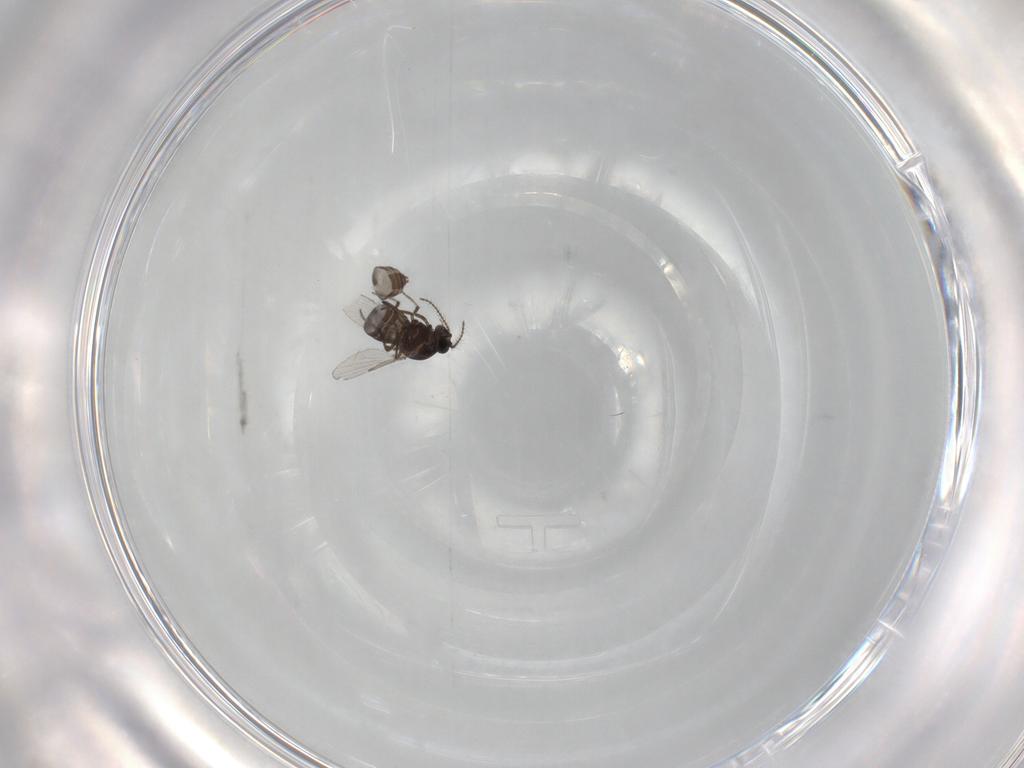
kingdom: Animalia
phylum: Arthropoda
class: Insecta
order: Diptera
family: Ceratopogonidae
